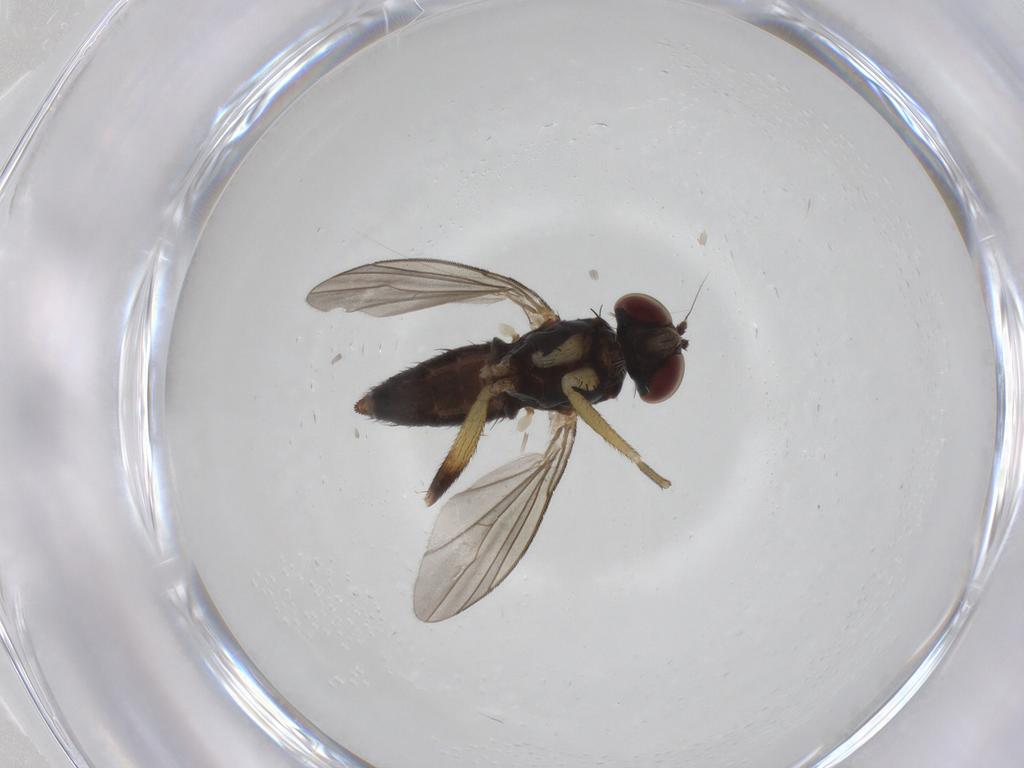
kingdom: Animalia
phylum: Arthropoda
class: Insecta
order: Diptera
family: Dolichopodidae
